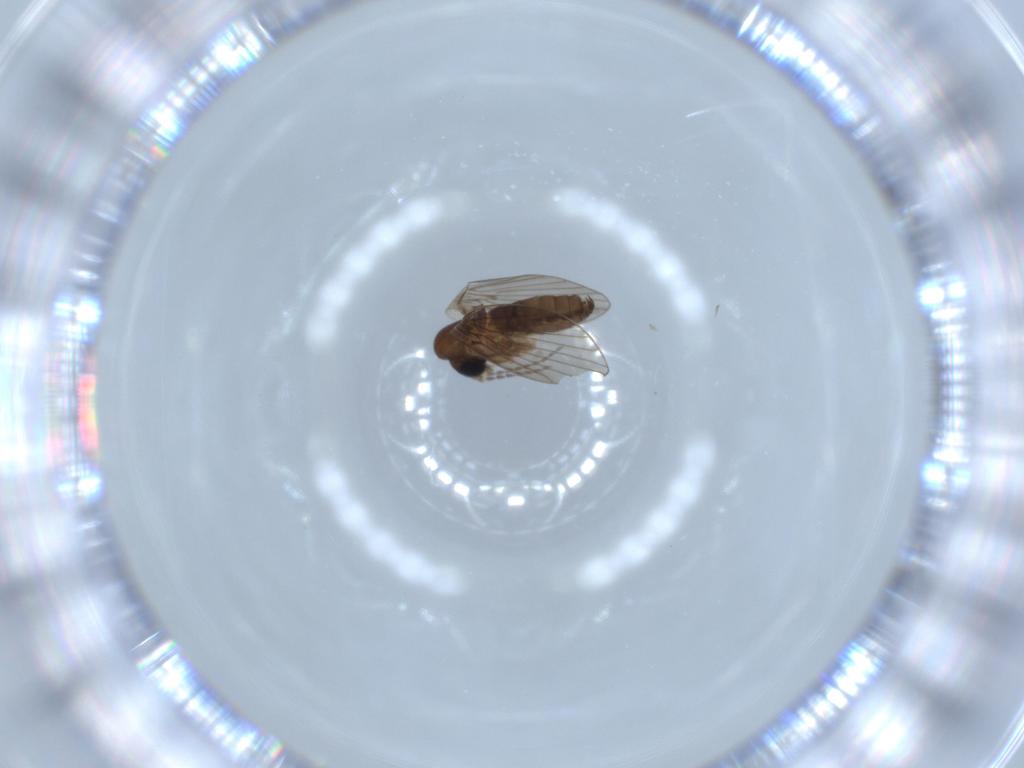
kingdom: Animalia
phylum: Arthropoda
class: Insecta
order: Diptera
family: Psychodidae
